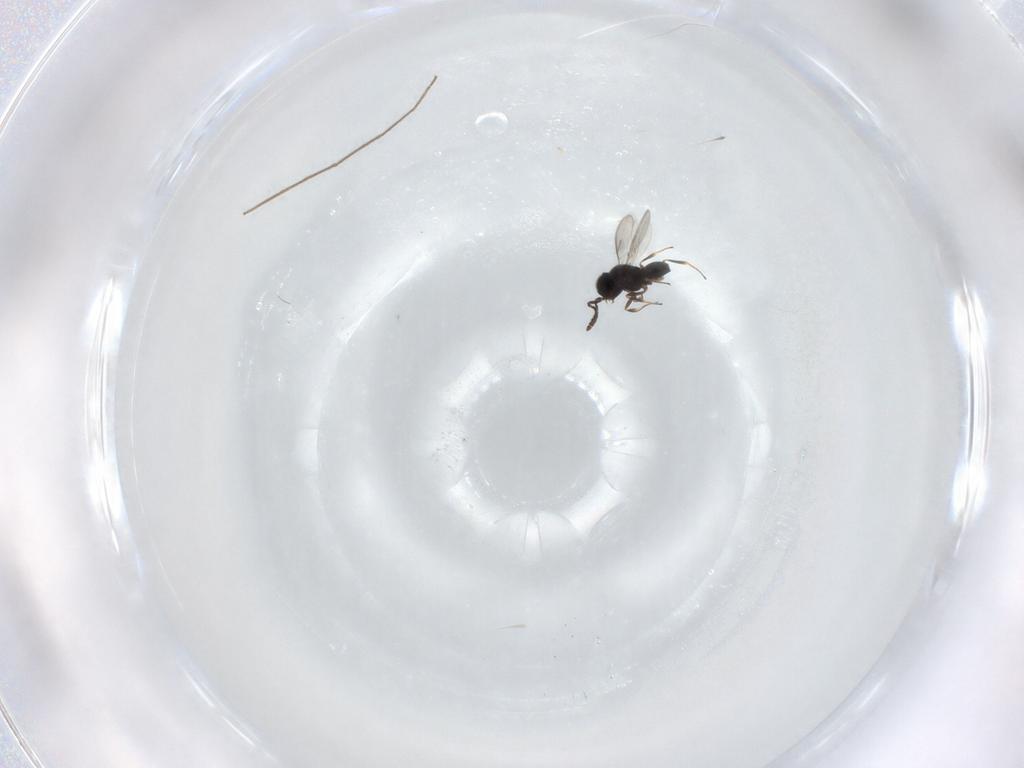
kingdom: Animalia
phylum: Arthropoda
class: Insecta
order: Hymenoptera
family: Scelionidae
